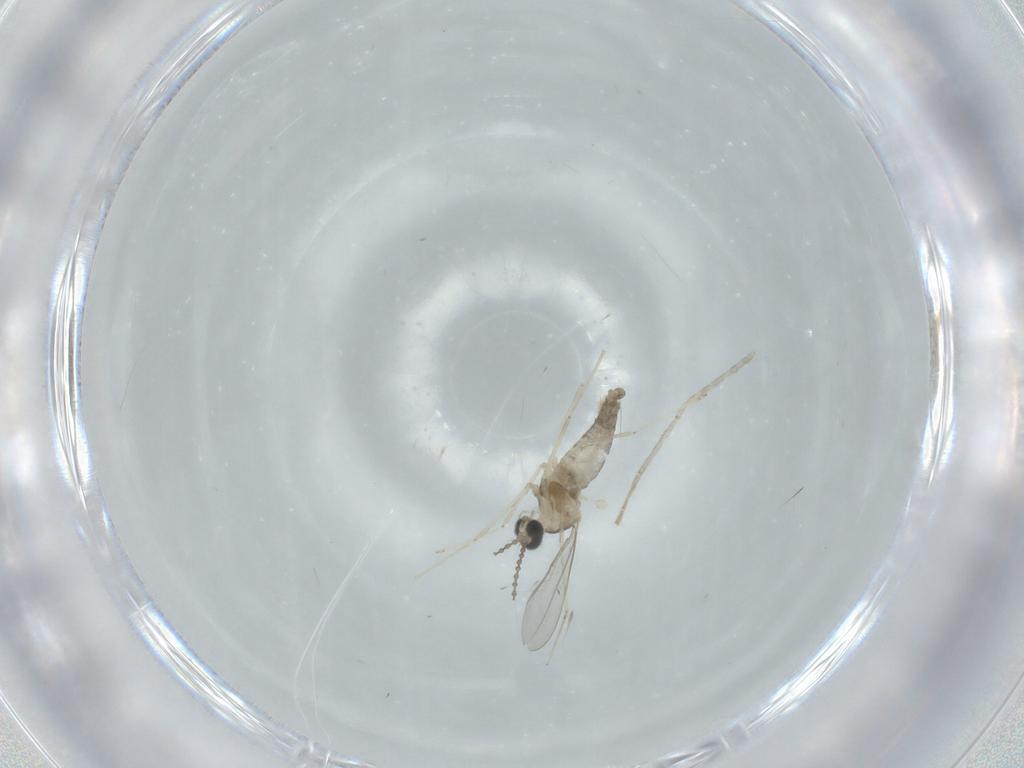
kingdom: Animalia
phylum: Arthropoda
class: Insecta
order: Diptera
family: Cecidomyiidae
